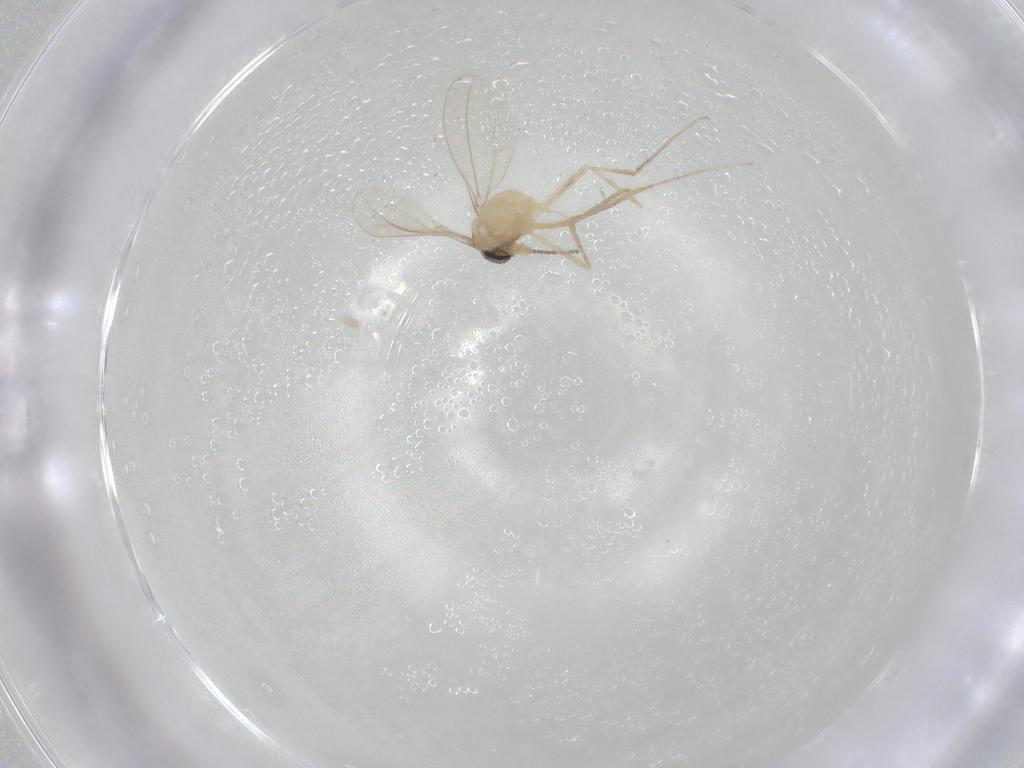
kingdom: Animalia
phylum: Arthropoda
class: Insecta
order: Diptera
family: Cecidomyiidae
